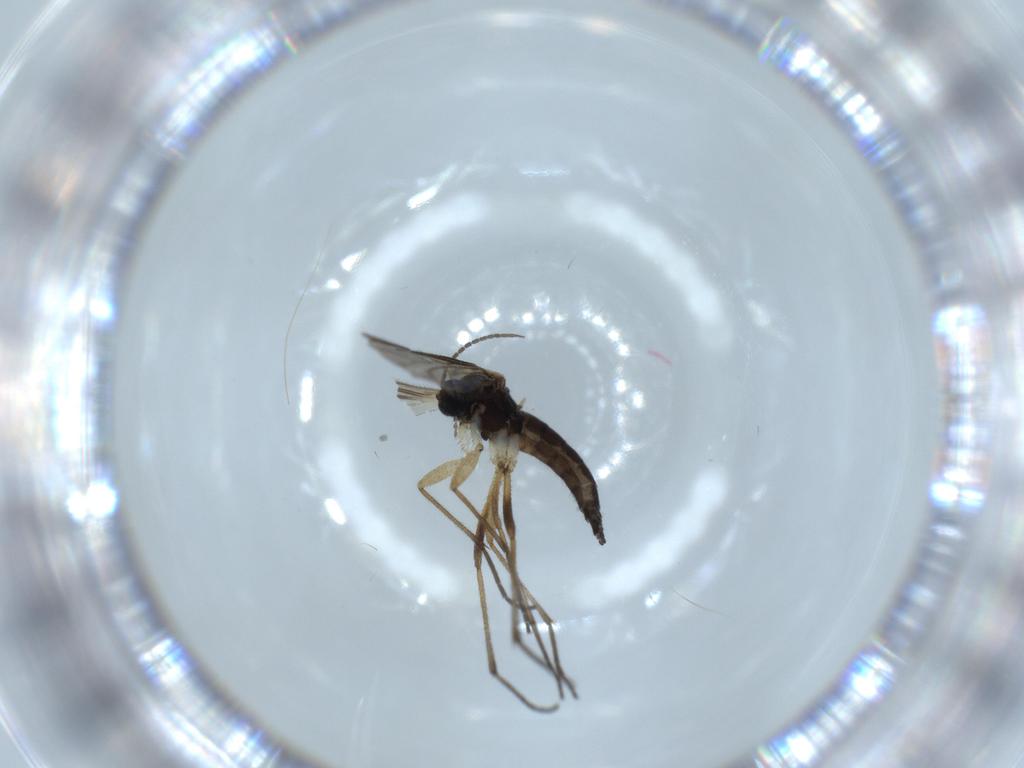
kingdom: Animalia
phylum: Arthropoda
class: Insecta
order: Diptera
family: Sciaridae
